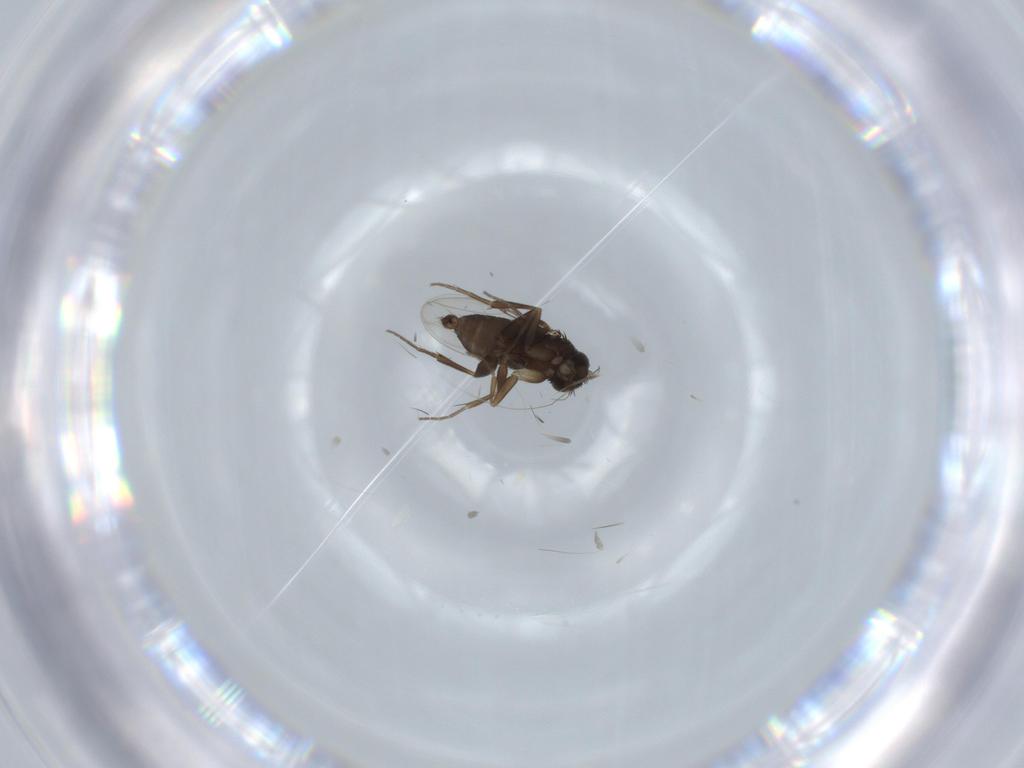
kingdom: Animalia
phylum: Arthropoda
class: Insecta
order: Diptera
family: Phoridae
